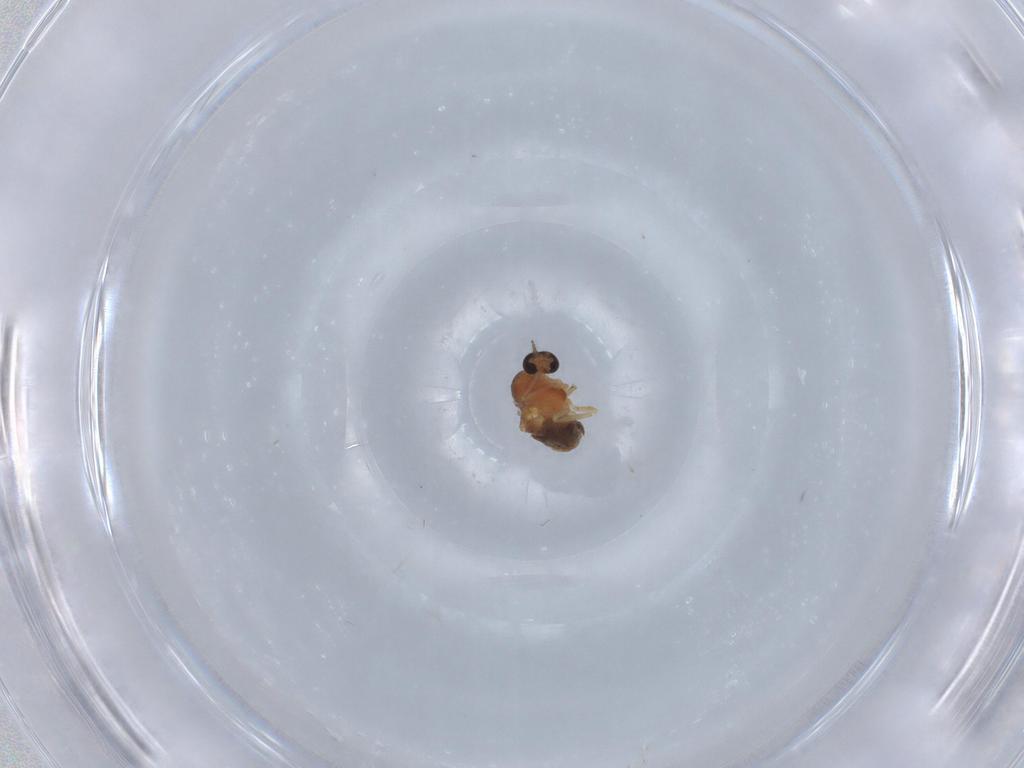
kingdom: Animalia
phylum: Arthropoda
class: Insecta
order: Diptera
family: Ceratopogonidae
